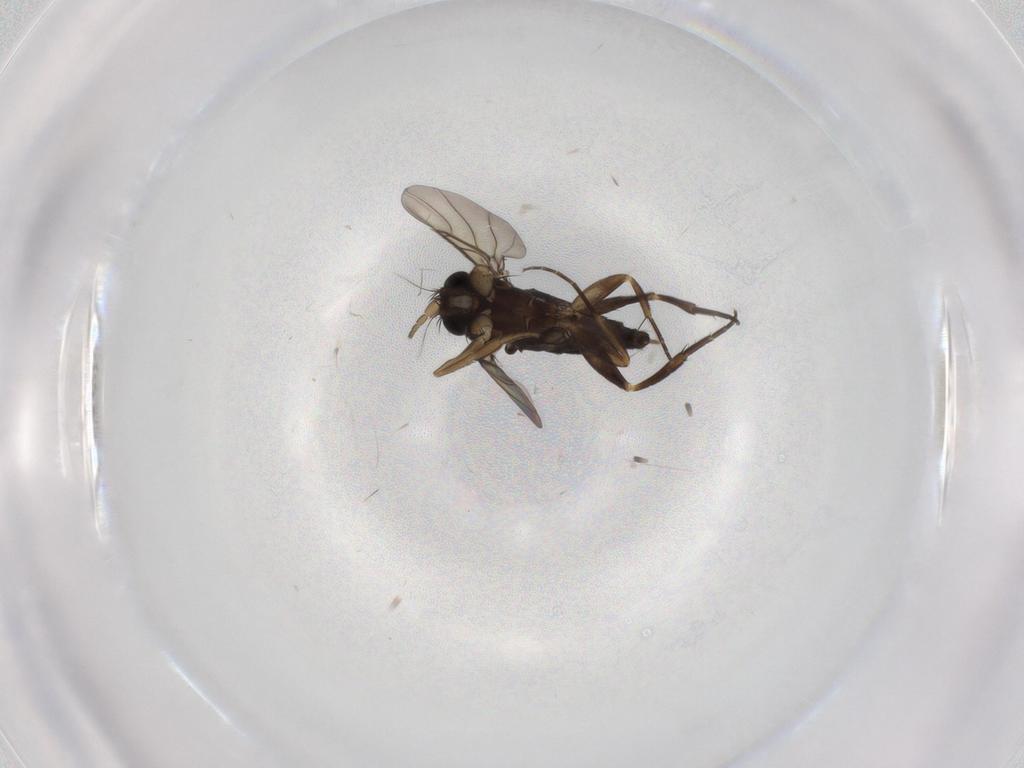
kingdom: Animalia
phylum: Arthropoda
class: Insecta
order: Diptera
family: Phoridae
